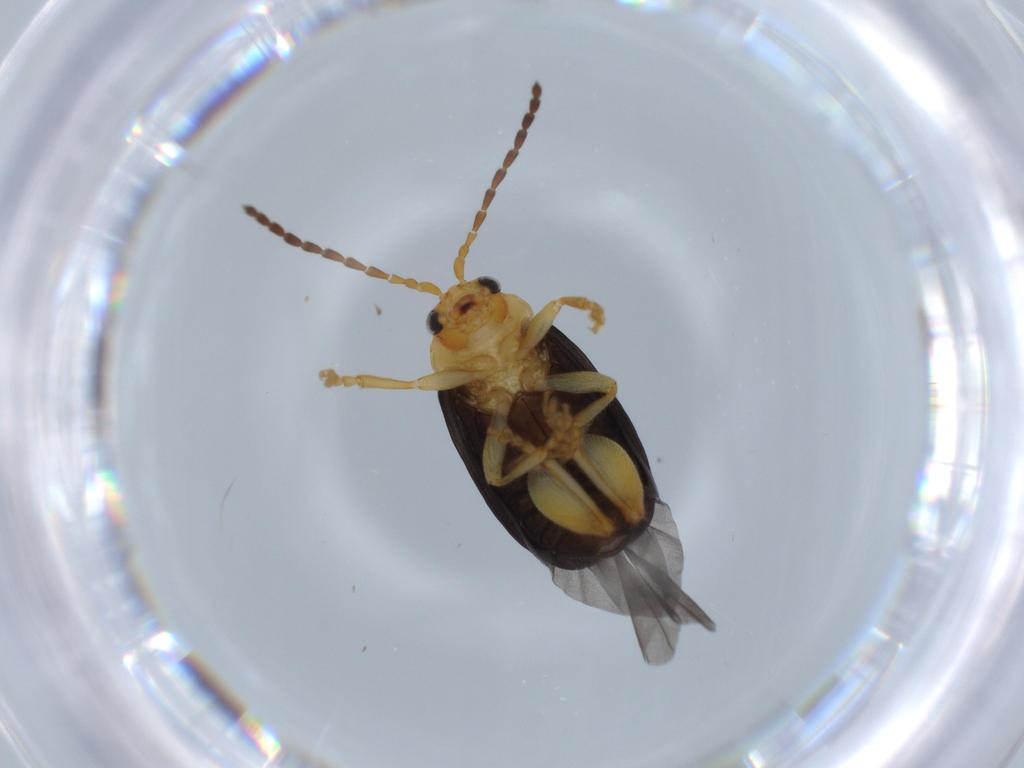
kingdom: Animalia
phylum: Arthropoda
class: Insecta
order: Coleoptera
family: Chrysomelidae
